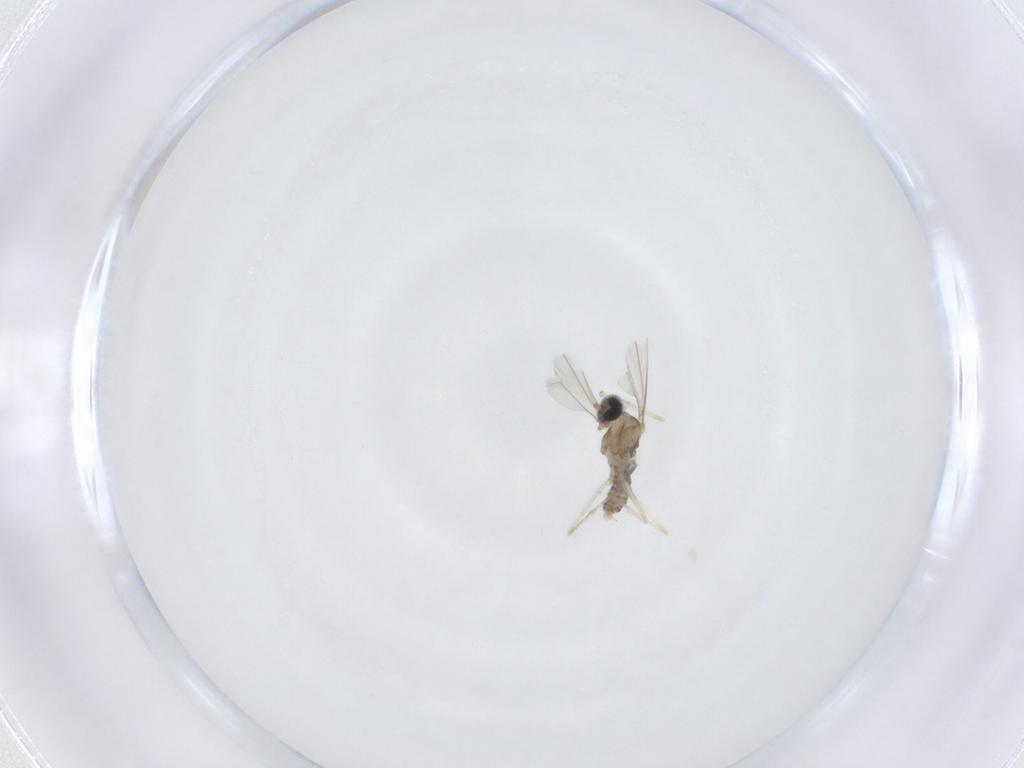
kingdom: Animalia
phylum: Arthropoda
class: Insecta
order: Diptera
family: Cecidomyiidae
